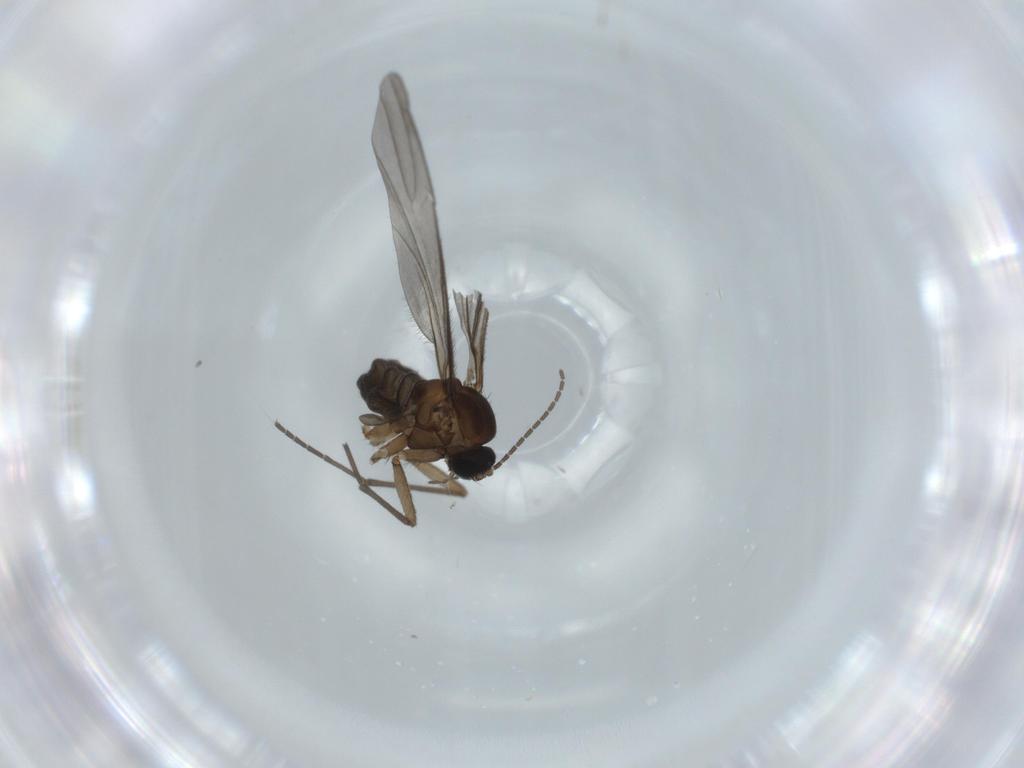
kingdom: Animalia
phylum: Arthropoda
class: Insecta
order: Diptera
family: Sciaridae
